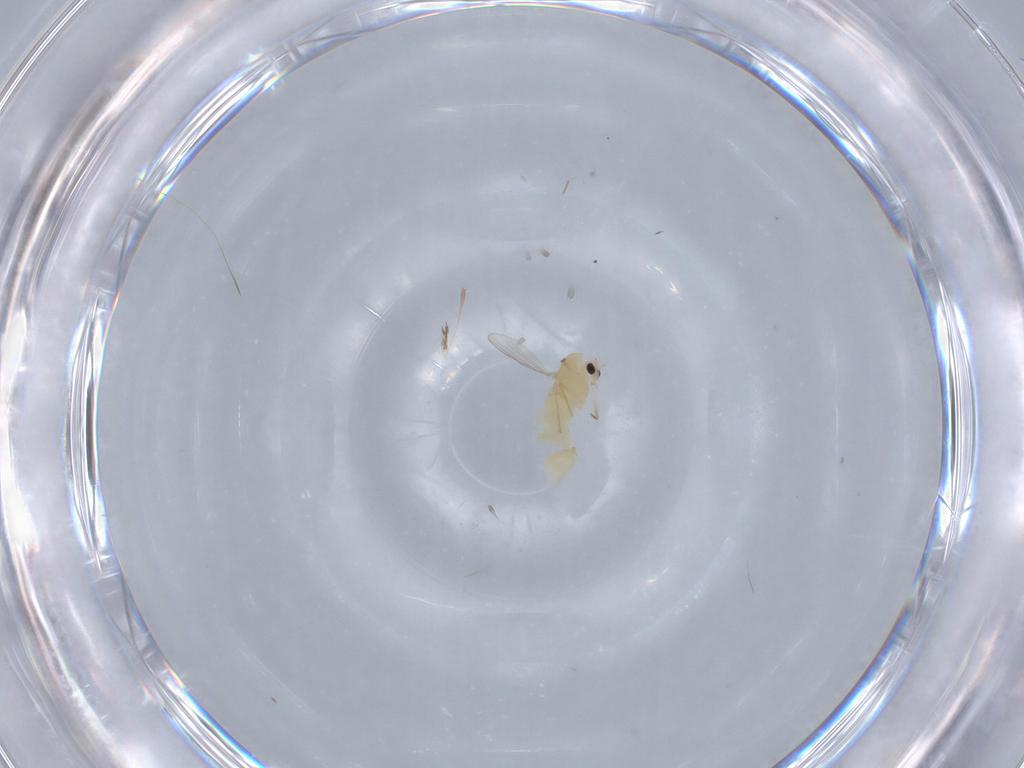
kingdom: Animalia
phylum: Arthropoda
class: Insecta
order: Diptera
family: Chironomidae
